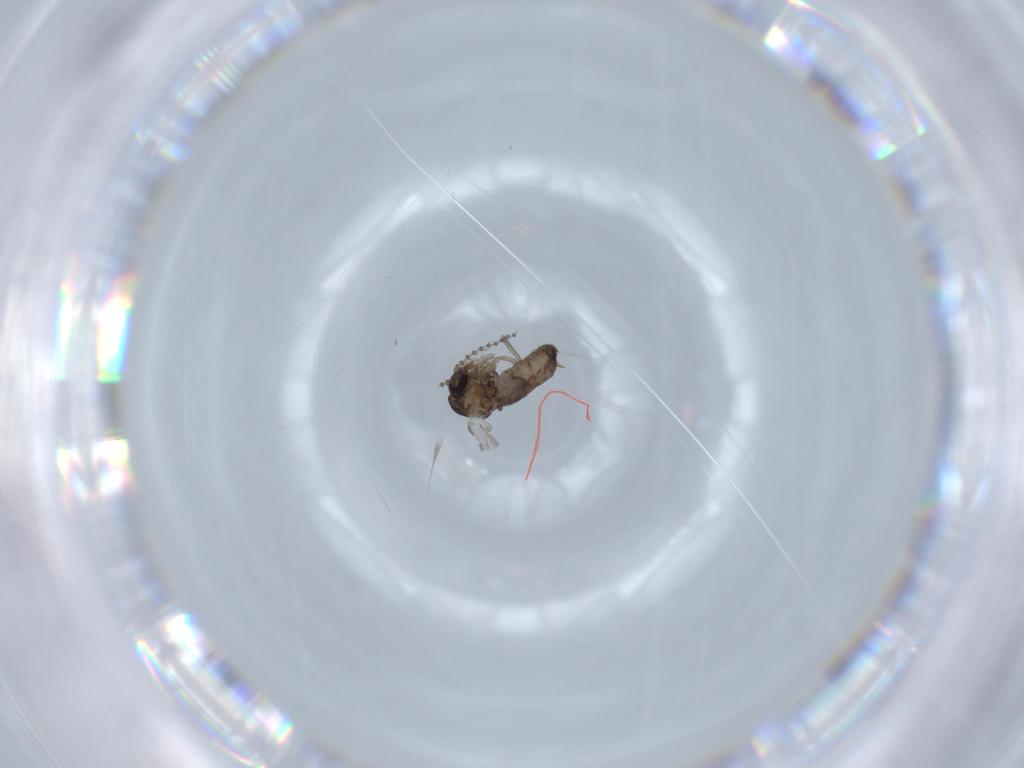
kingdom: Animalia
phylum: Arthropoda
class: Insecta
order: Diptera
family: Psychodidae
